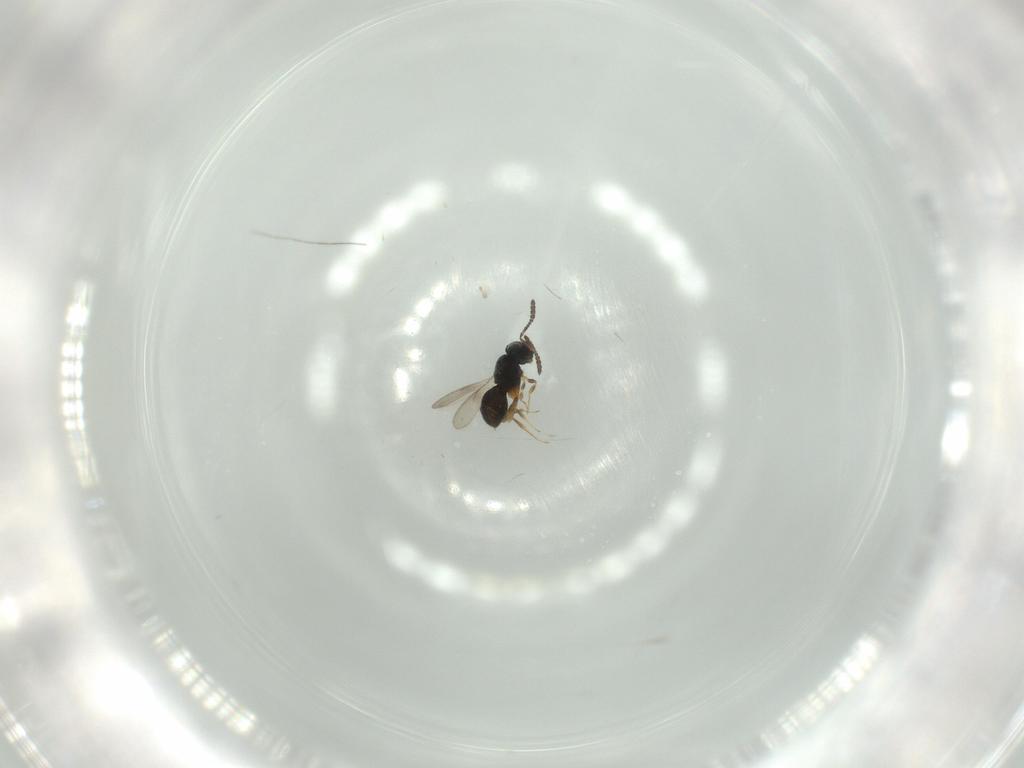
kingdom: Animalia
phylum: Arthropoda
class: Insecta
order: Hymenoptera
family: Scelionidae
